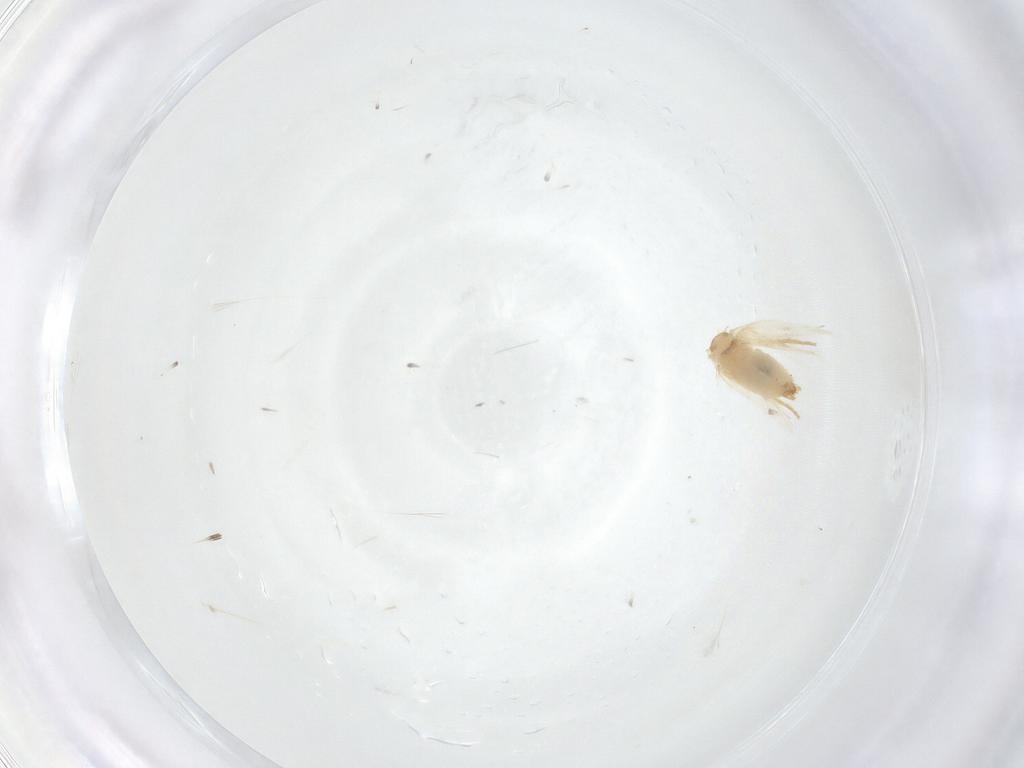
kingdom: Animalia
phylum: Arthropoda
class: Insecta
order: Lepidoptera
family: Crambidae
